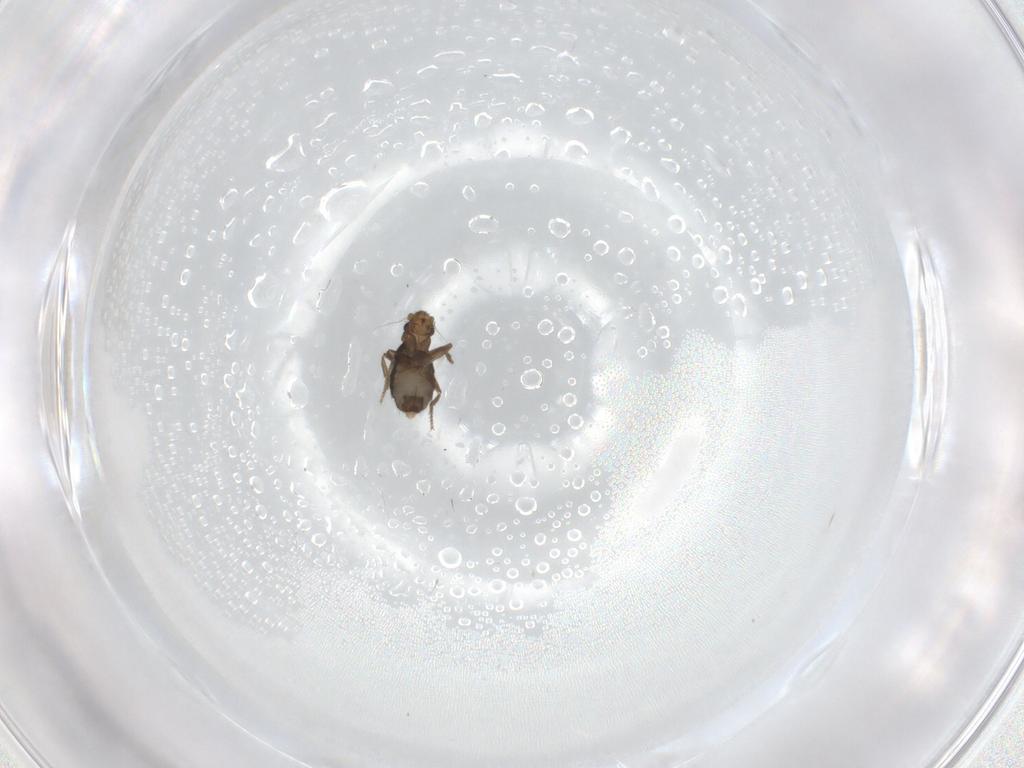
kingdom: Animalia
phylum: Arthropoda
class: Insecta
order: Diptera
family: Phoridae
